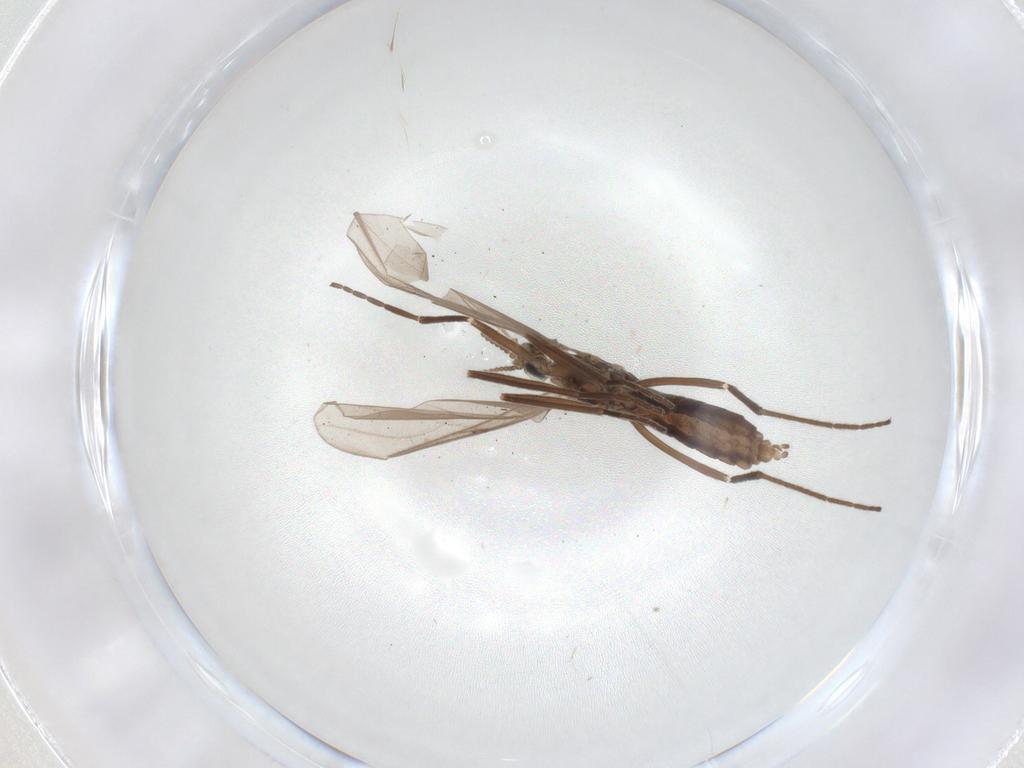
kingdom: Animalia
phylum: Arthropoda
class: Insecta
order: Diptera
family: Cecidomyiidae
